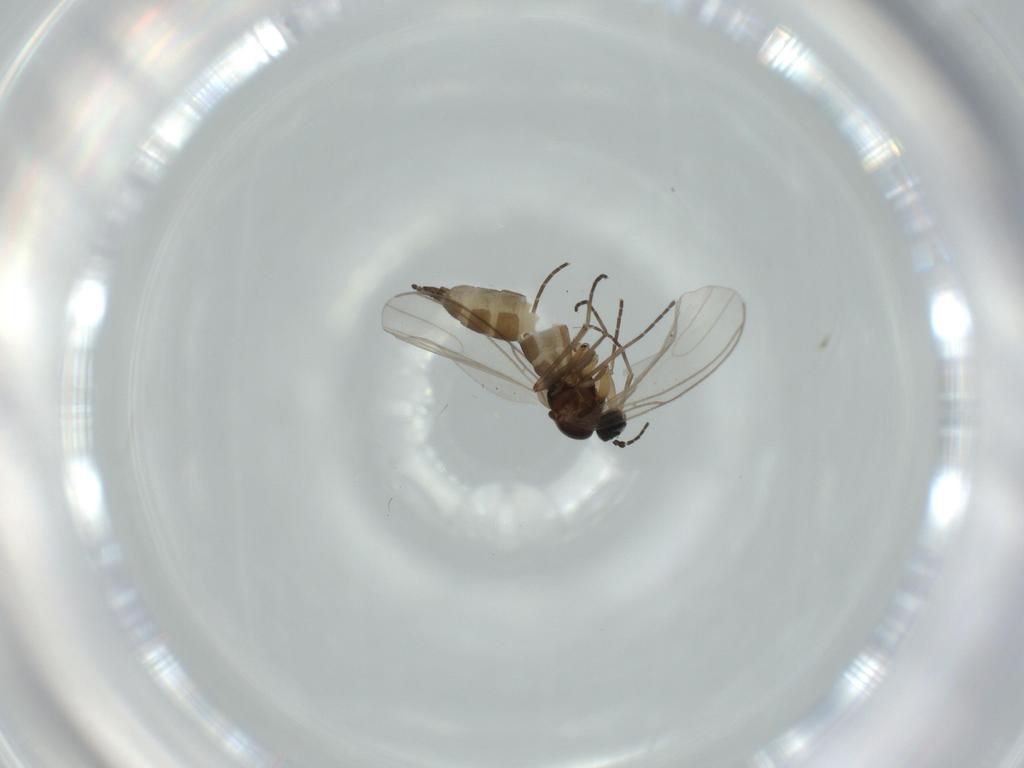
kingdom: Animalia
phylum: Arthropoda
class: Insecta
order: Diptera
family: Sciaridae
